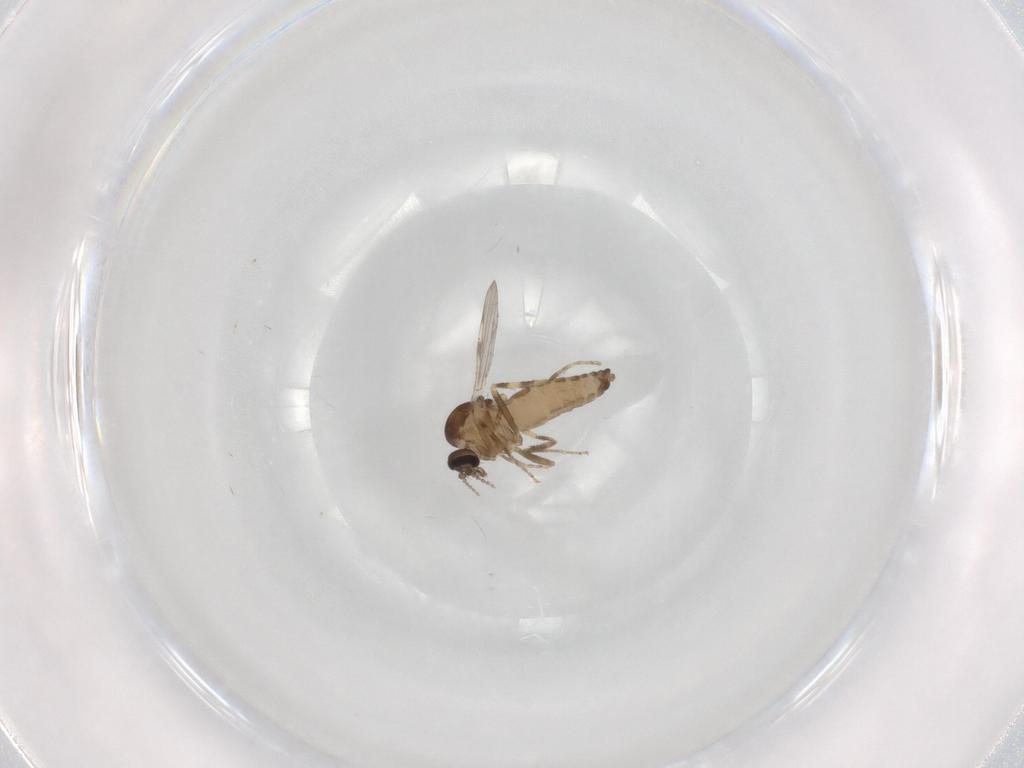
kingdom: Animalia
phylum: Arthropoda
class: Insecta
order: Diptera
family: Ceratopogonidae
